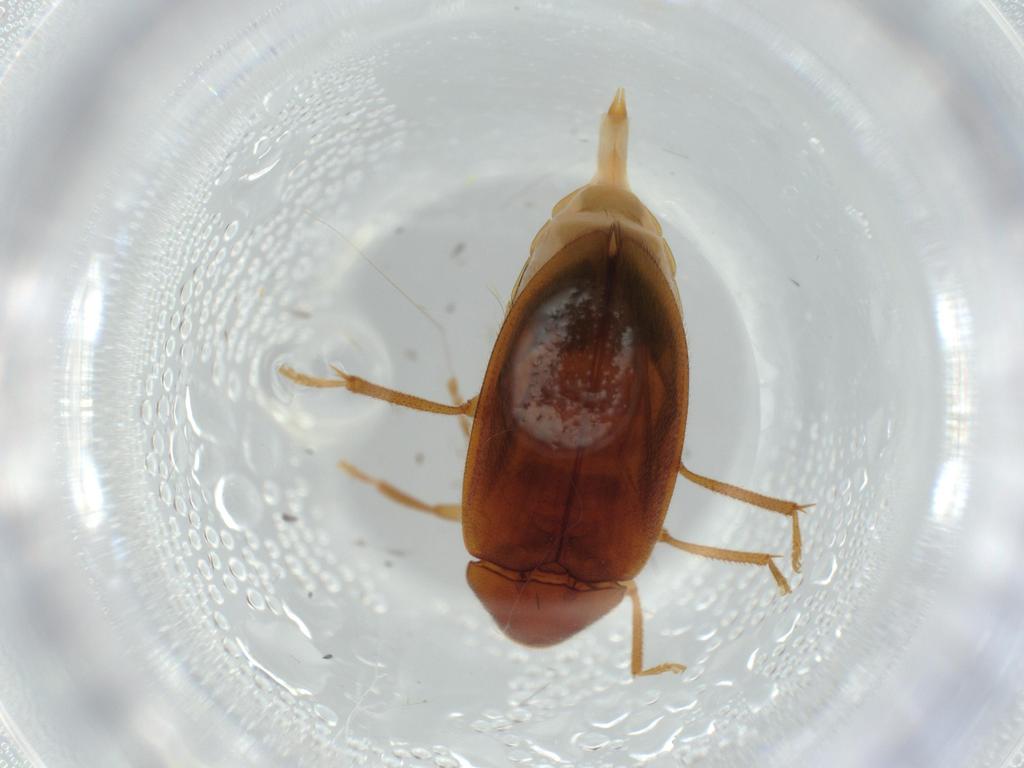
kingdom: Animalia
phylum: Arthropoda
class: Insecta
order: Coleoptera
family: Ptilodactylidae
